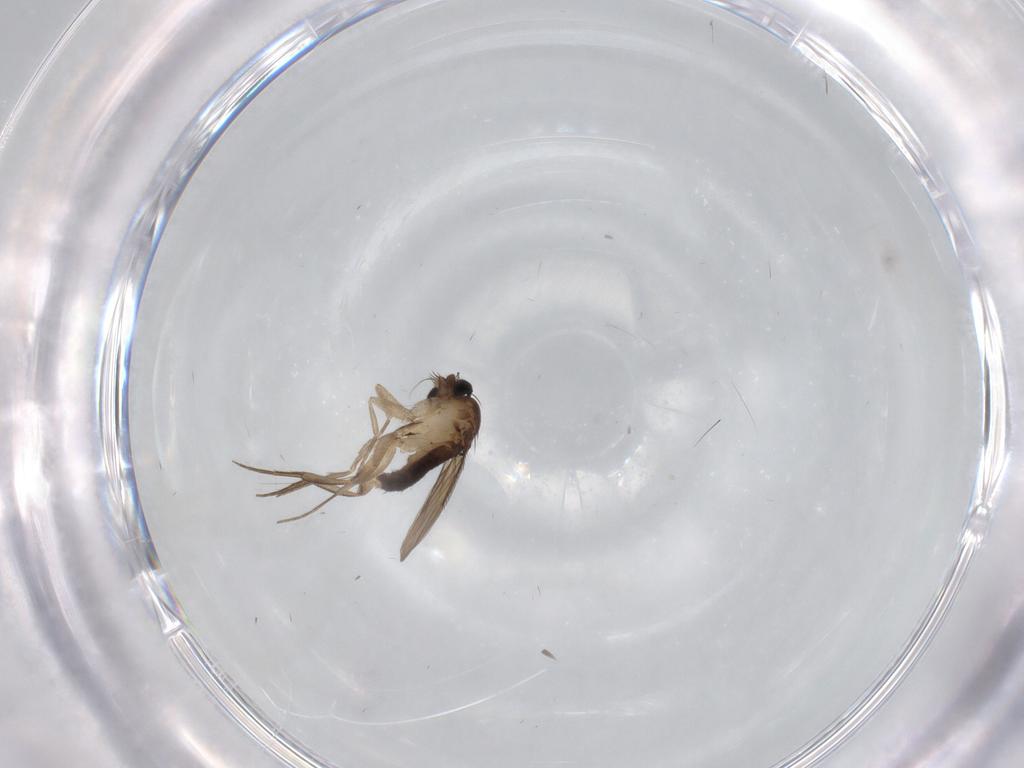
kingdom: Animalia
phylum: Arthropoda
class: Insecta
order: Diptera
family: Phoridae
